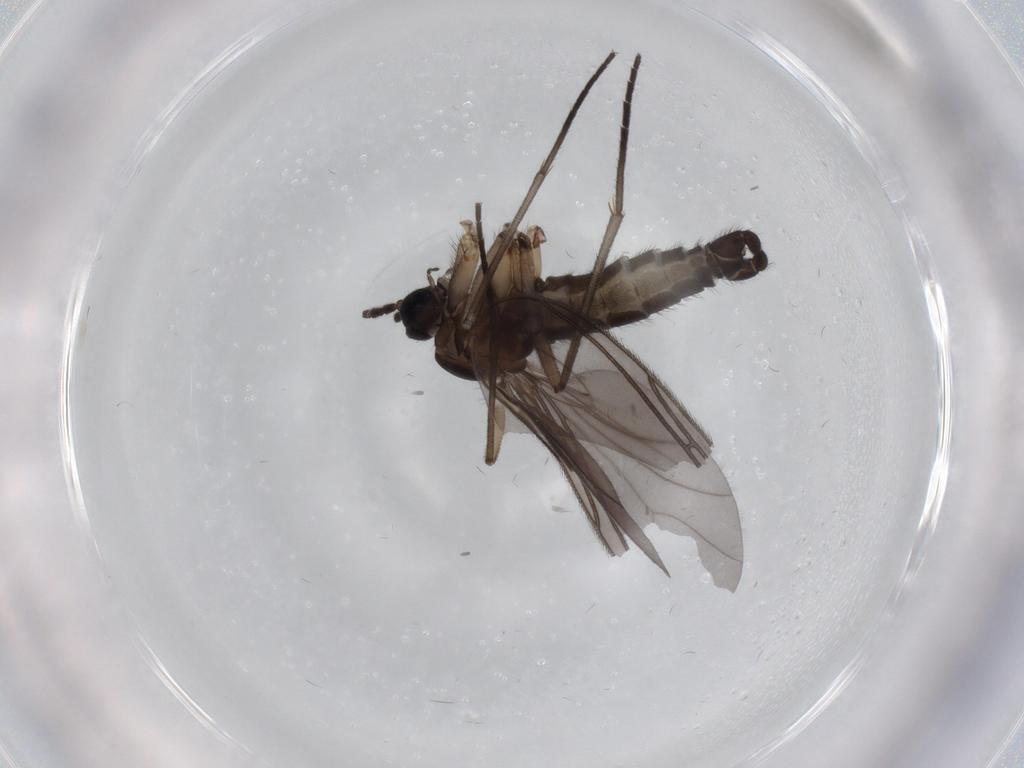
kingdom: Animalia
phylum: Arthropoda
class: Insecta
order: Diptera
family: Sciaridae
